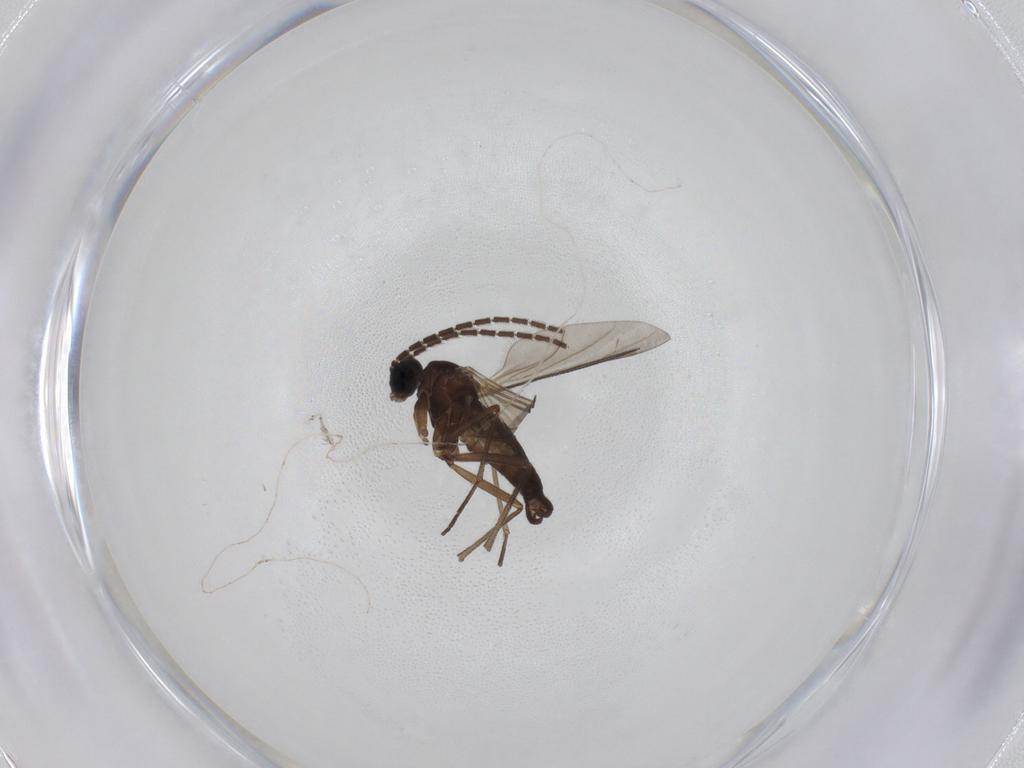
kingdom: Animalia
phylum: Arthropoda
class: Insecta
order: Diptera
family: Sciaridae
